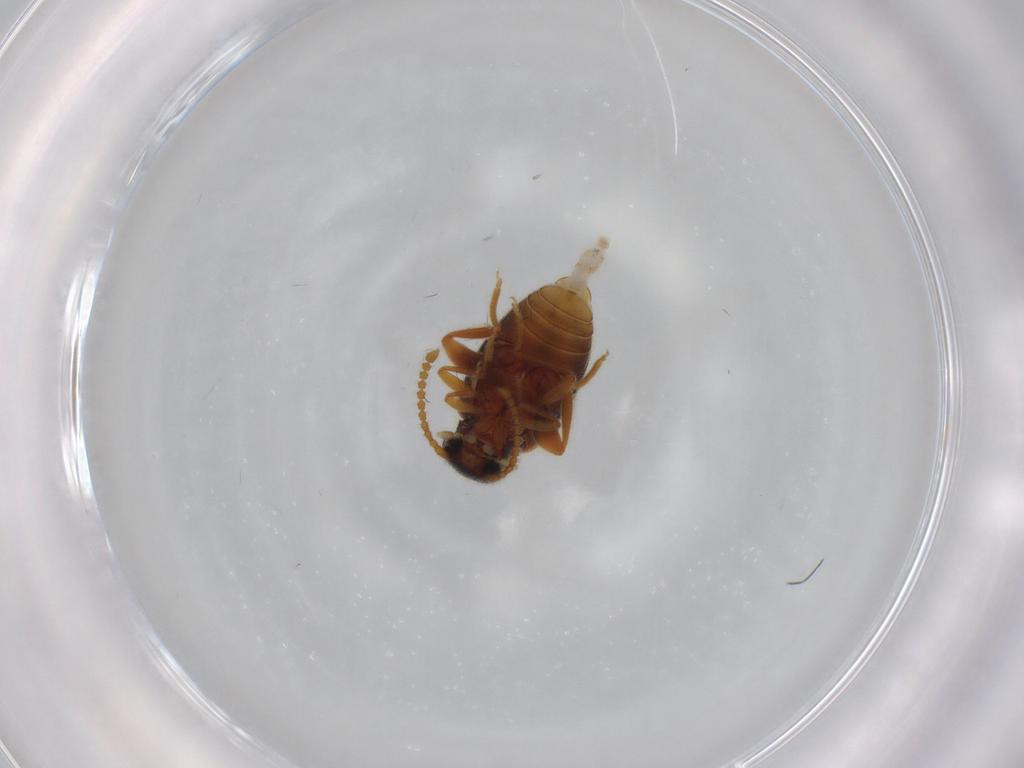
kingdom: Animalia
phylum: Arthropoda
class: Insecta
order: Coleoptera
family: Aderidae
